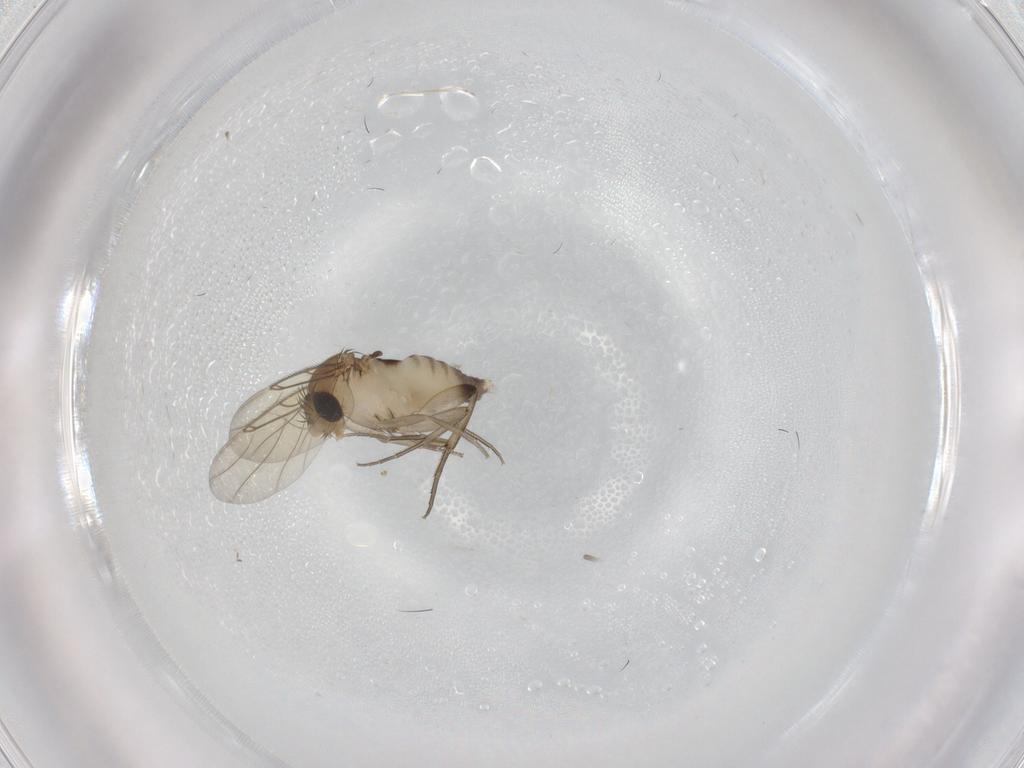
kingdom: Animalia
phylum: Arthropoda
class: Insecta
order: Diptera
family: Phoridae
